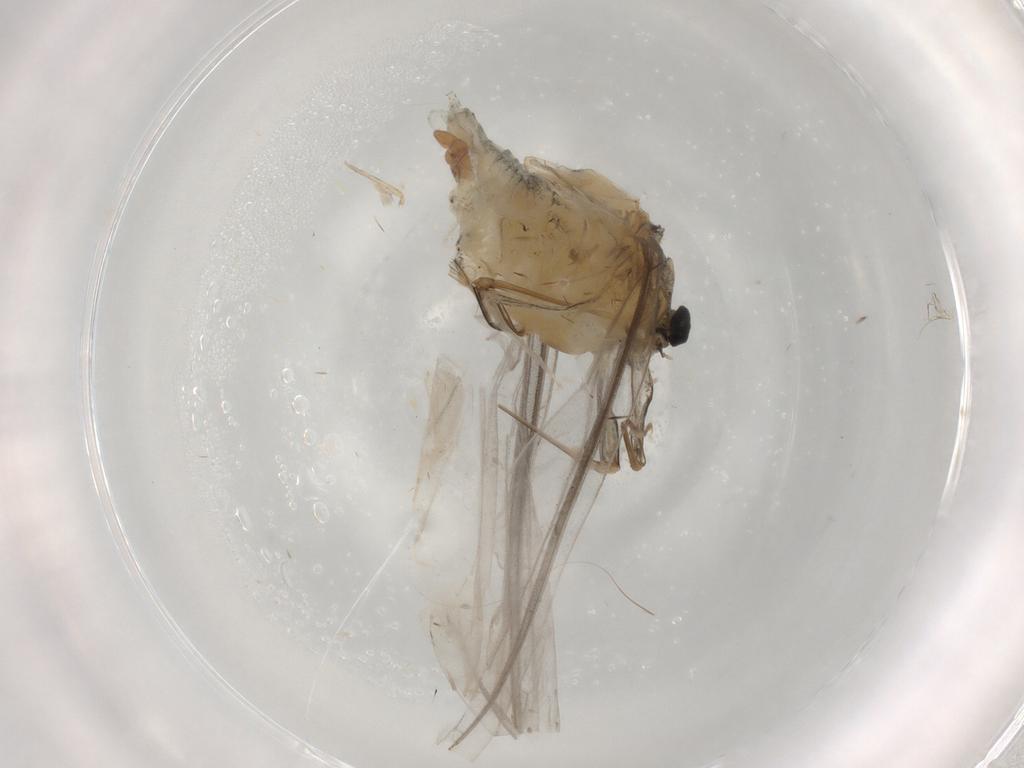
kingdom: Animalia
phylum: Arthropoda
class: Insecta
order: Lepidoptera
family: Eriocottidae
